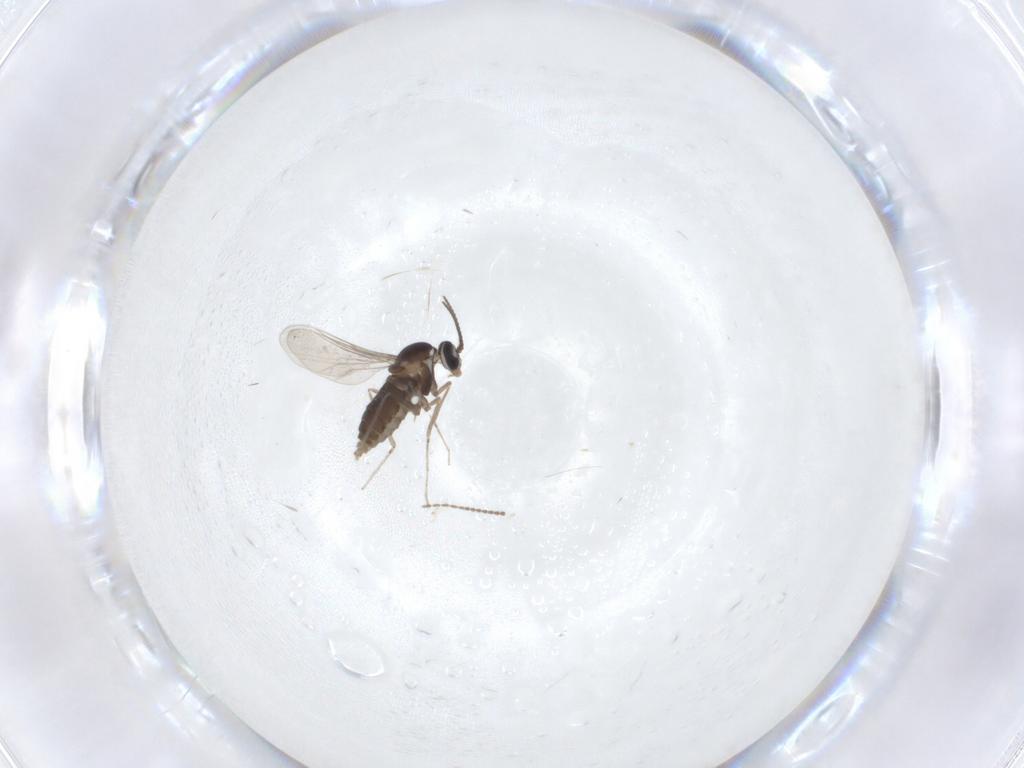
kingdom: Animalia
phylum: Arthropoda
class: Insecta
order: Diptera
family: Cecidomyiidae
